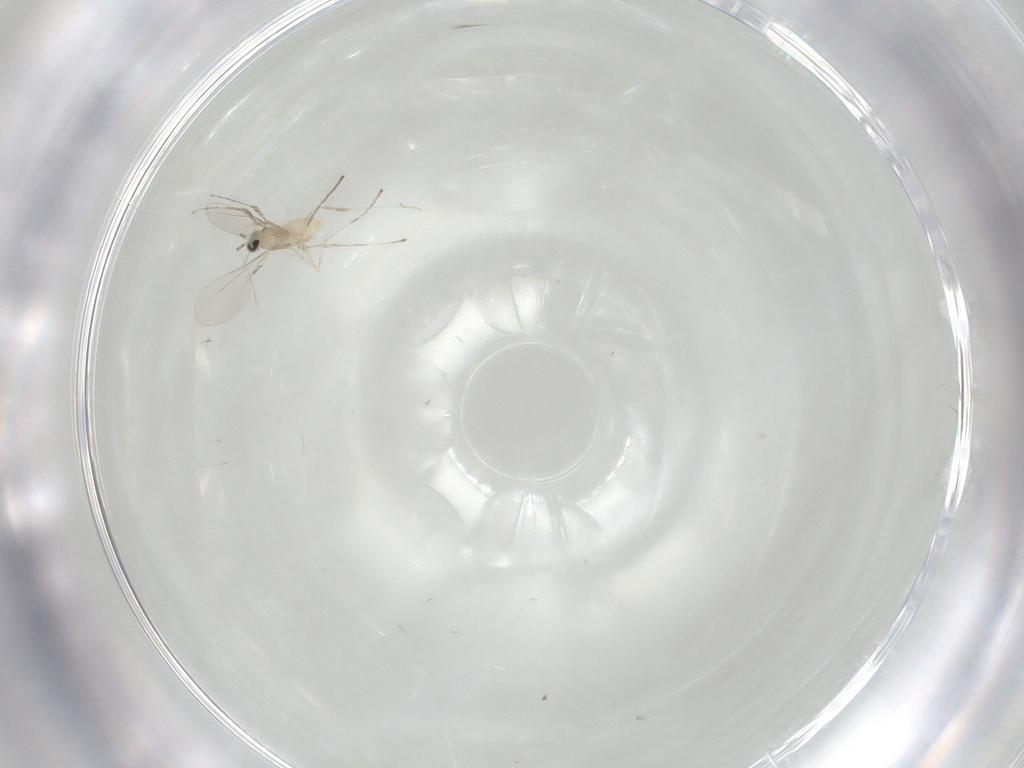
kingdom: Animalia
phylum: Arthropoda
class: Insecta
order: Diptera
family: Cecidomyiidae
